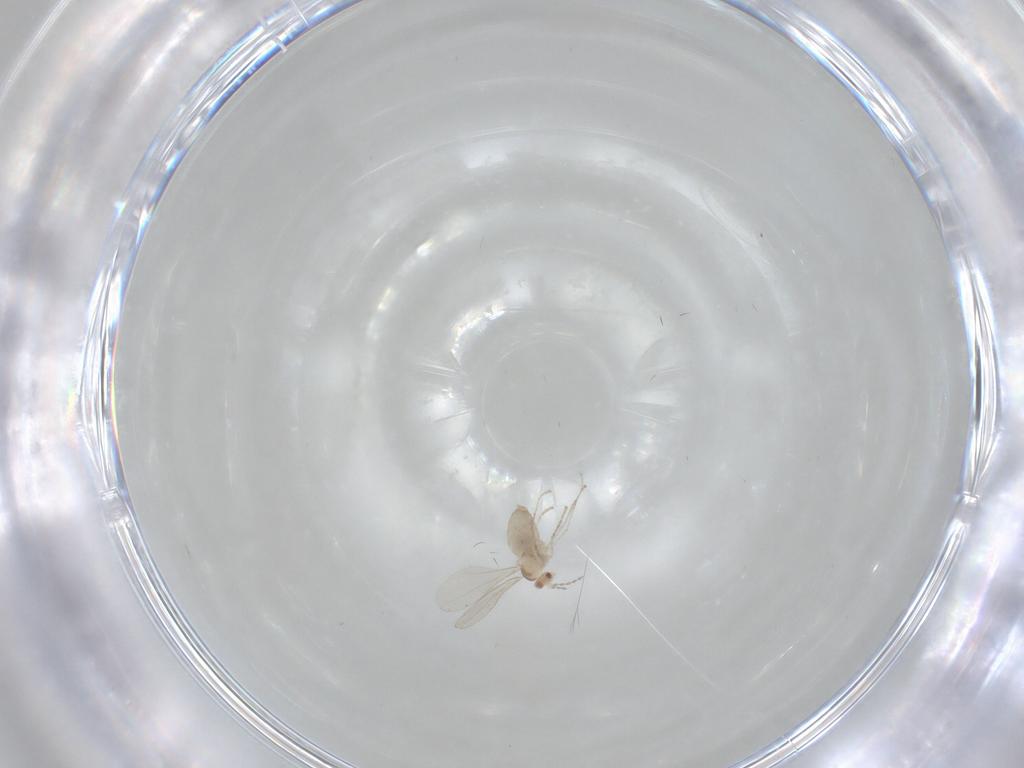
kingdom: Animalia
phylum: Arthropoda
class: Insecta
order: Diptera
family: Cecidomyiidae
